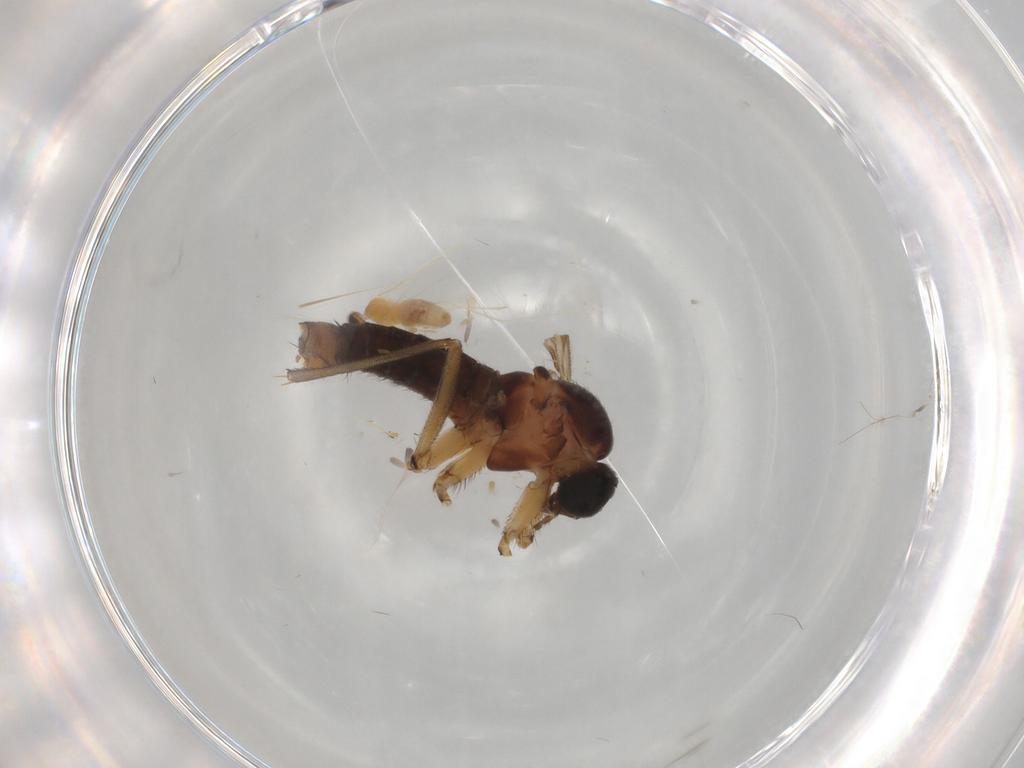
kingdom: Animalia
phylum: Arthropoda
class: Insecta
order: Diptera
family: Sciaridae
